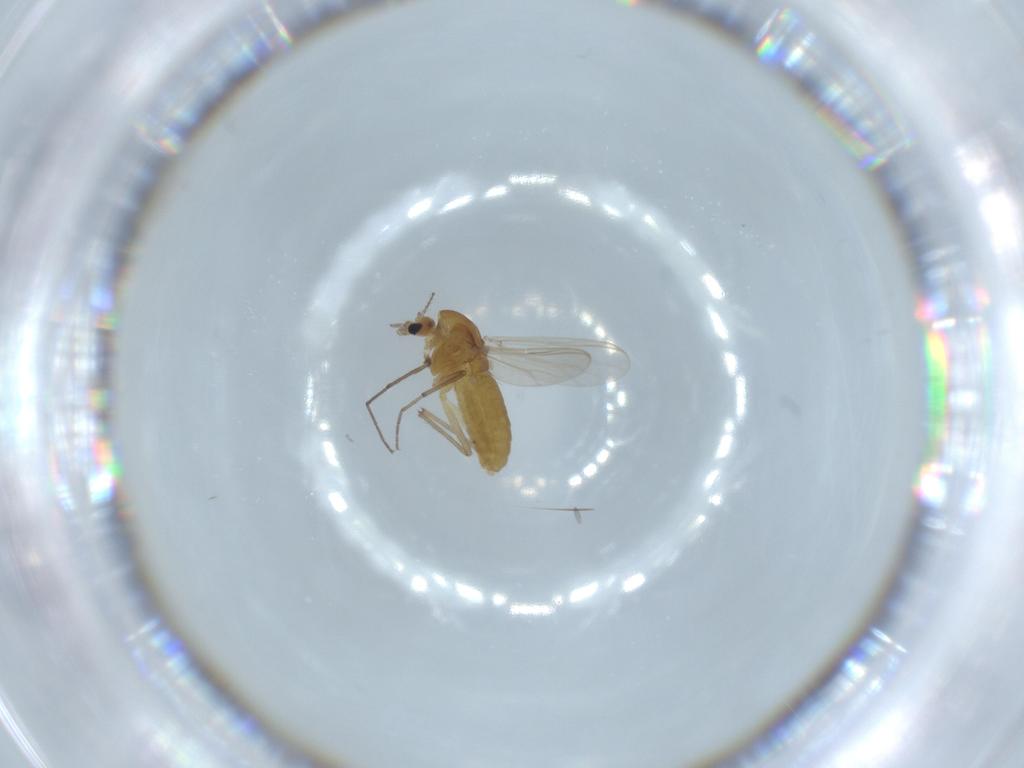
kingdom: Animalia
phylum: Arthropoda
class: Insecta
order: Diptera
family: Chironomidae
